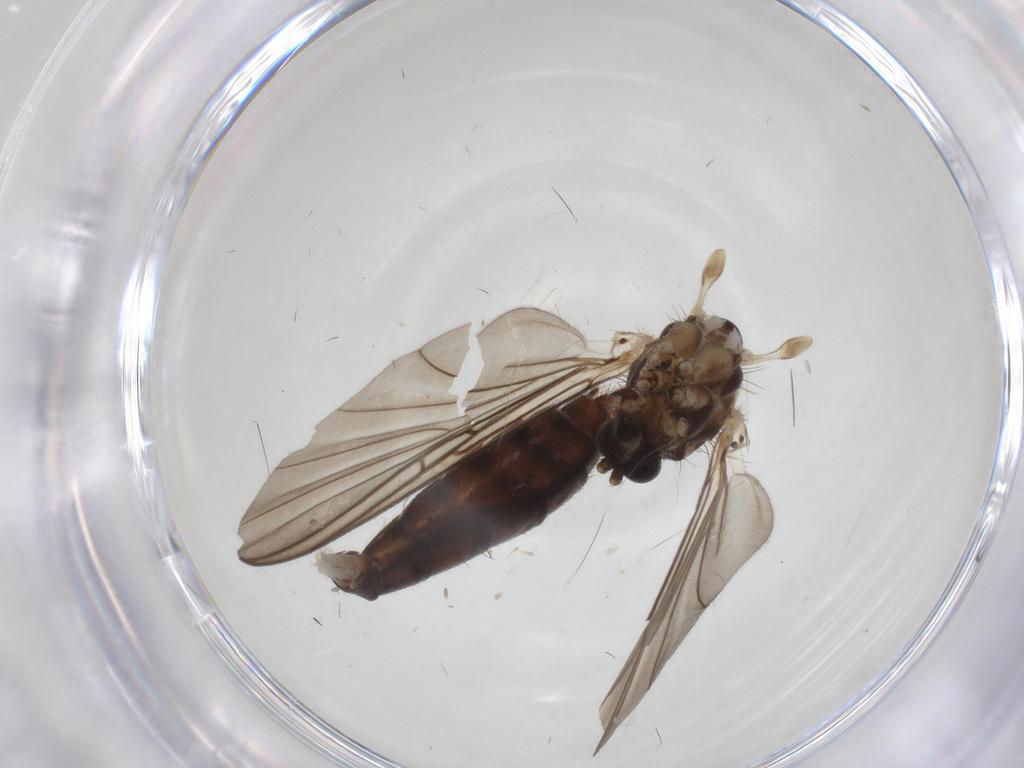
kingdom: Animalia
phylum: Arthropoda
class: Insecta
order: Diptera
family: Mycetophilidae
